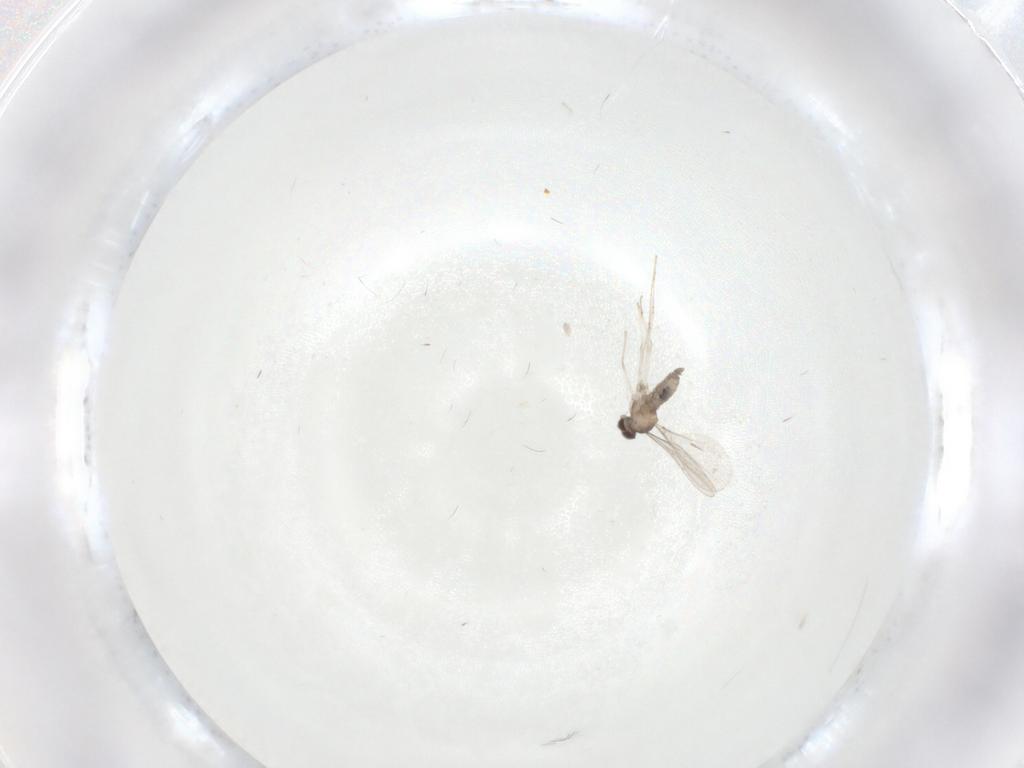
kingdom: Animalia
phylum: Arthropoda
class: Insecta
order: Diptera
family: Cecidomyiidae
